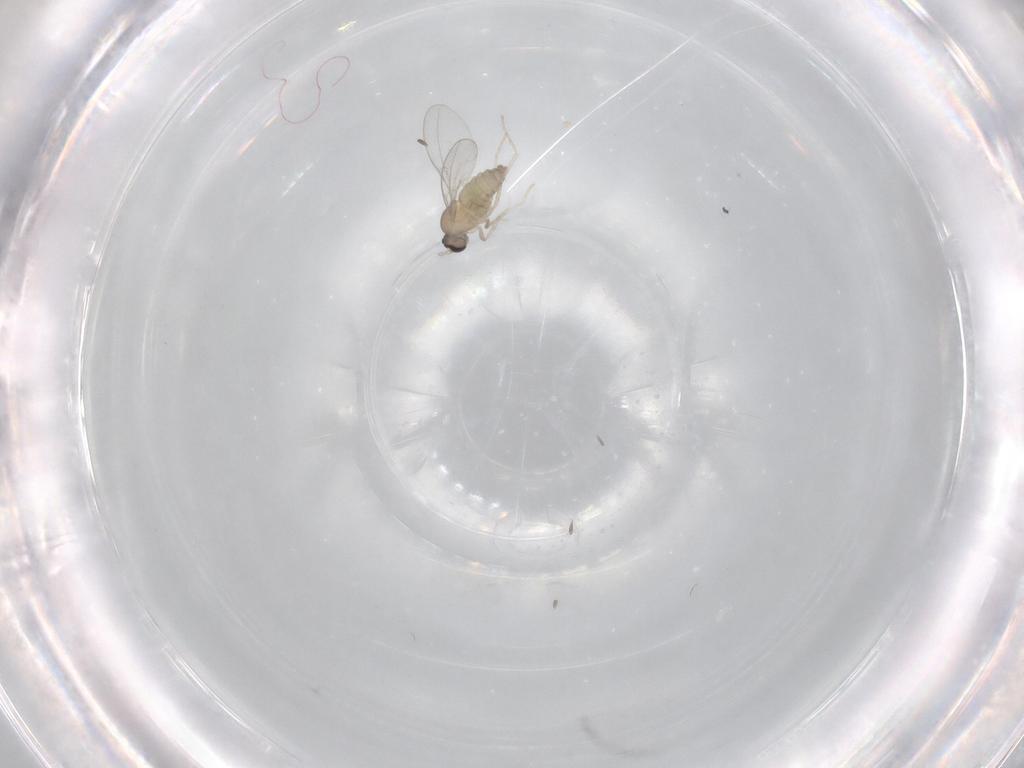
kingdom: Animalia
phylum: Arthropoda
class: Insecta
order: Diptera
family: Cecidomyiidae
